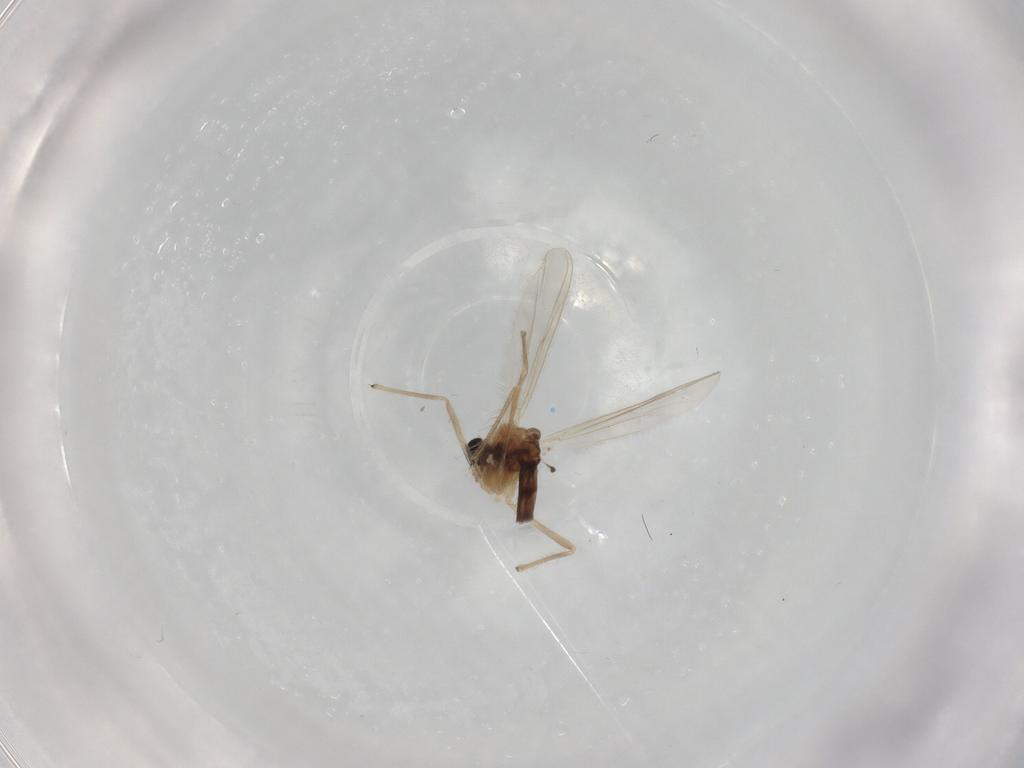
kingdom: Animalia
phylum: Arthropoda
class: Insecta
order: Diptera
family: Chironomidae
